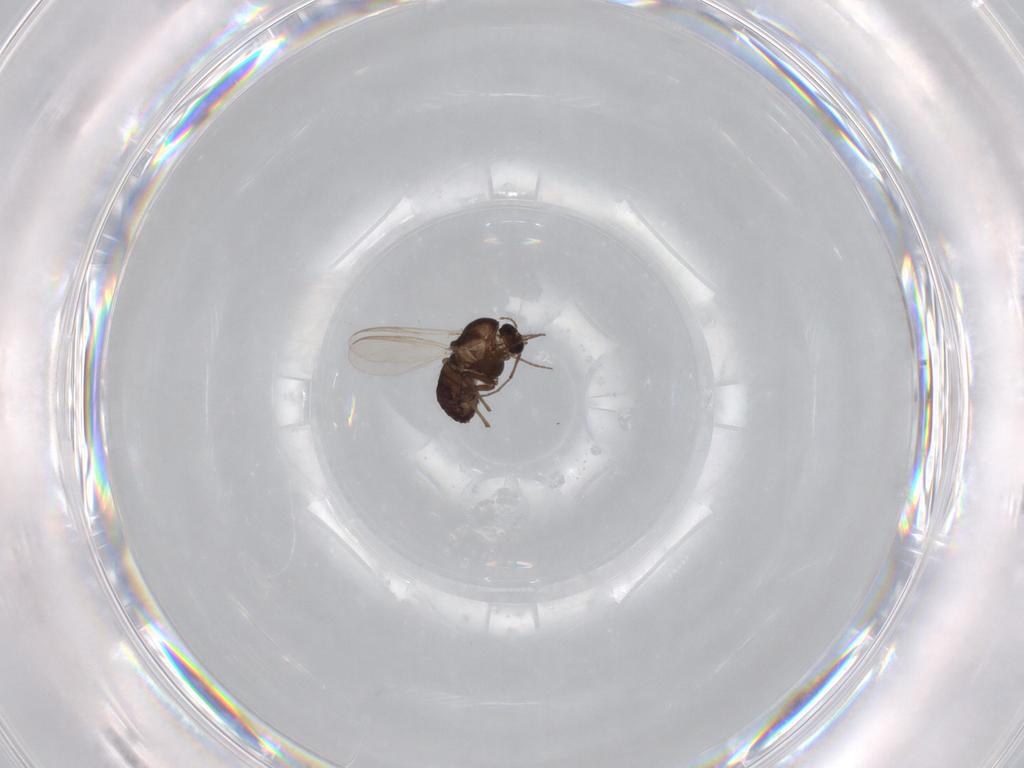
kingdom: Animalia
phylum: Arthropoda
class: Insecta
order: Diptera
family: Chironomidae
